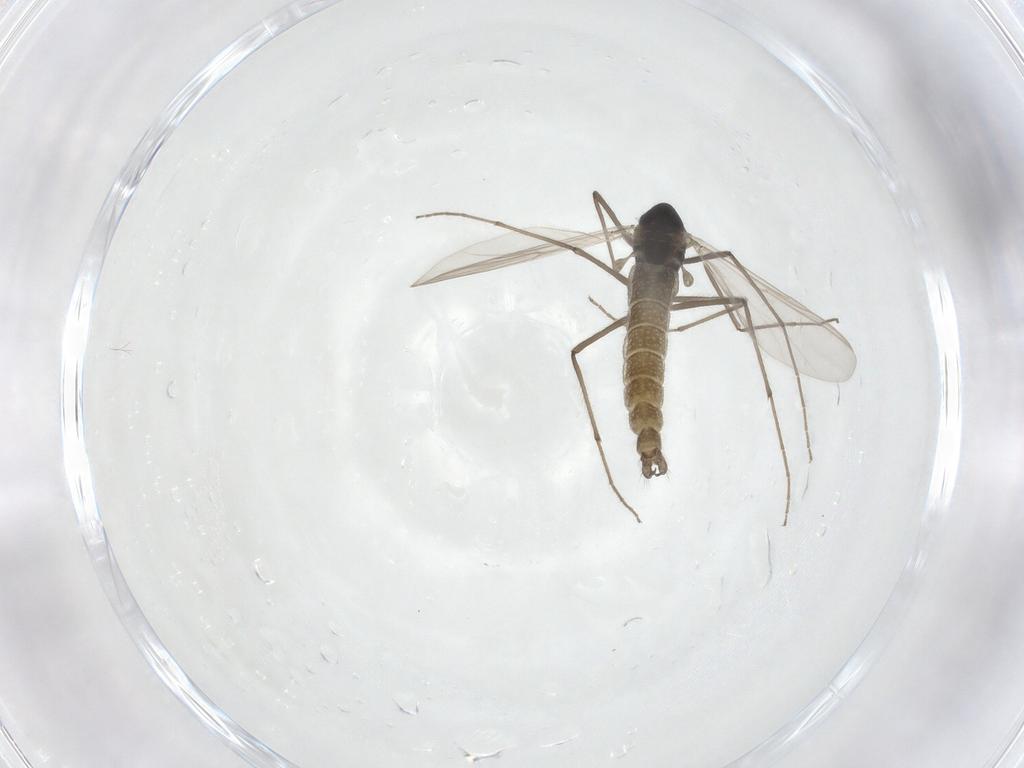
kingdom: Animalia
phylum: Arthropoda
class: Insecta
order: Diptera
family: Chironomidae
